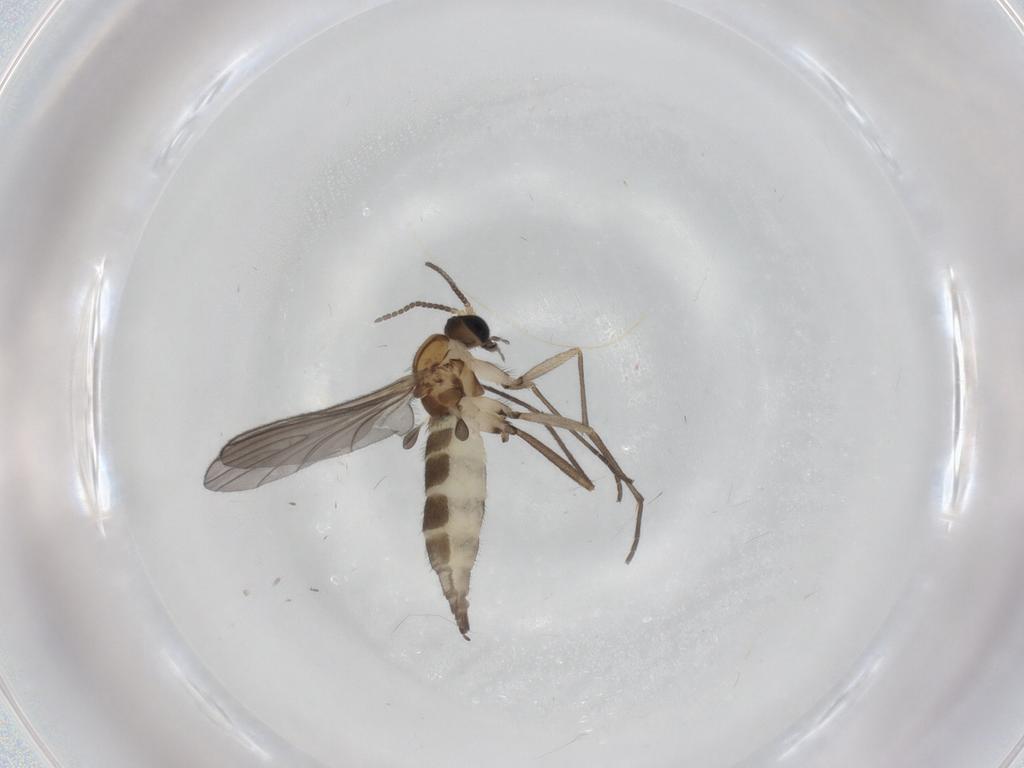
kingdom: Animalia
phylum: Arthropoda
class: Insecta
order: Diptera
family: Sciaridae
